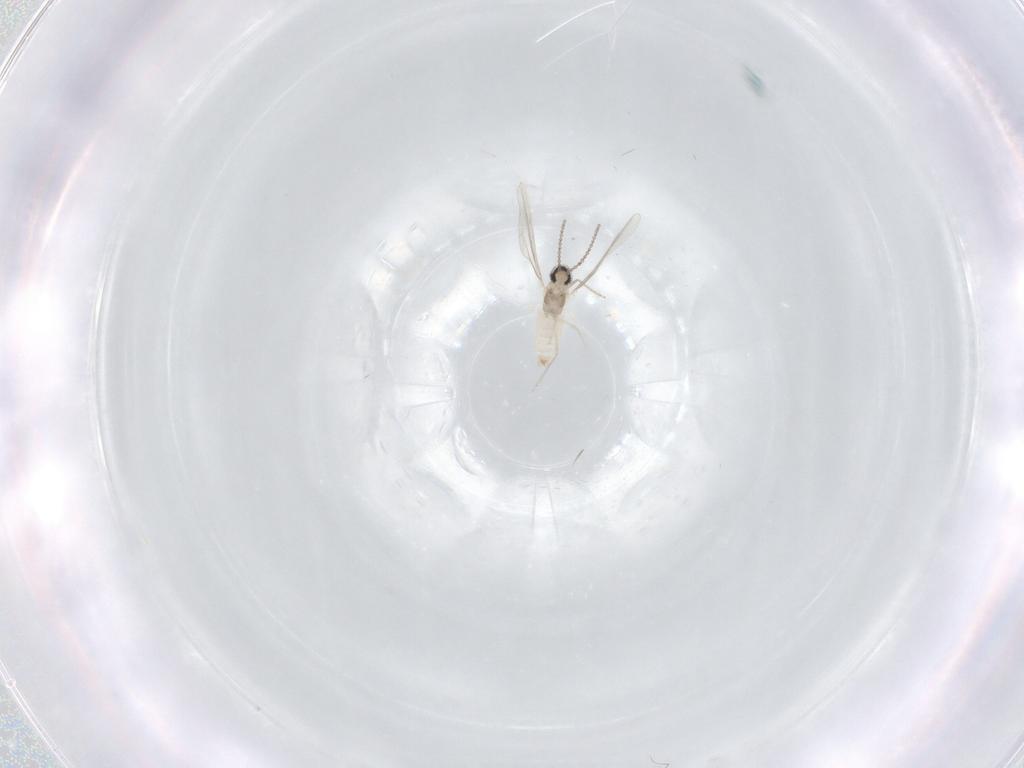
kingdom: Animalia
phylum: Arthropoda
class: Insecta
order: Diptera
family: Cecidomyiidae
